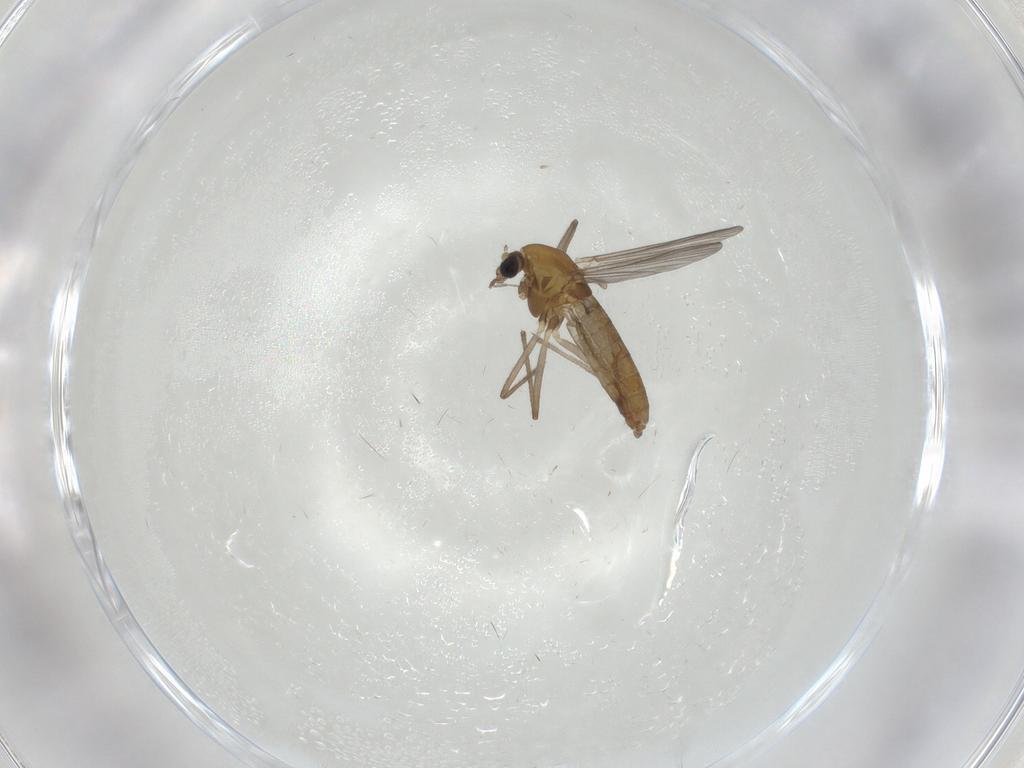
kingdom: Animalia
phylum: Arthropoda
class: Insecta
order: Diptera
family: Chironomidae
